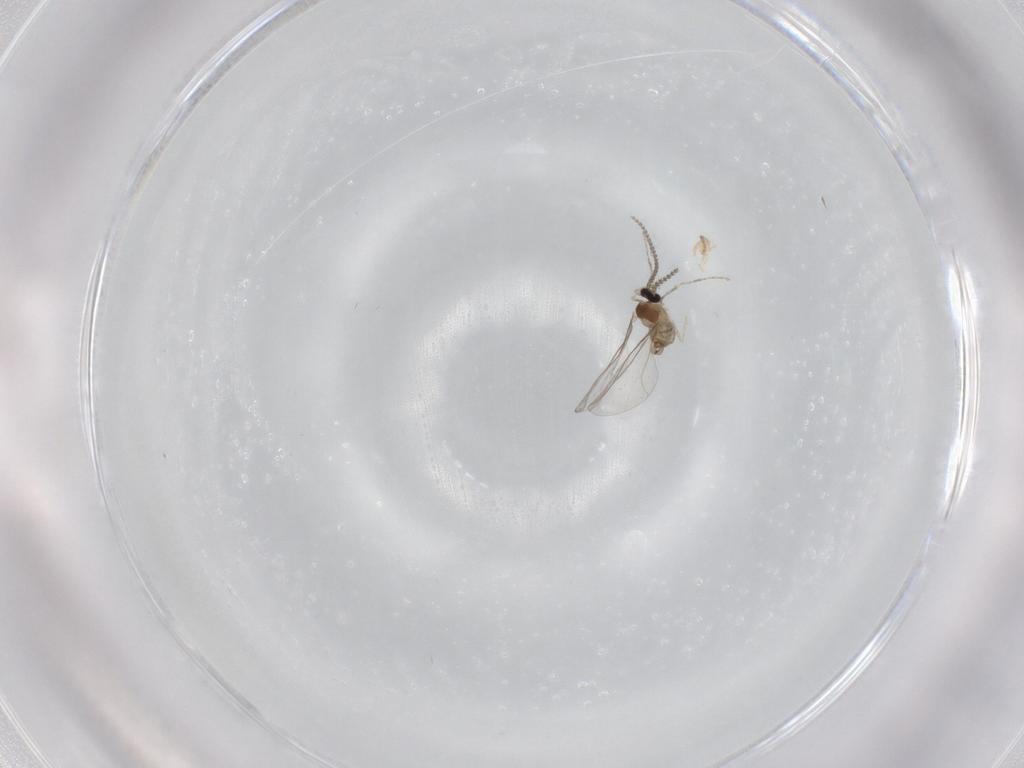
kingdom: Animalia
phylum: Arthropoda
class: Insecta
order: Diptera
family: Cecidomyiidae
